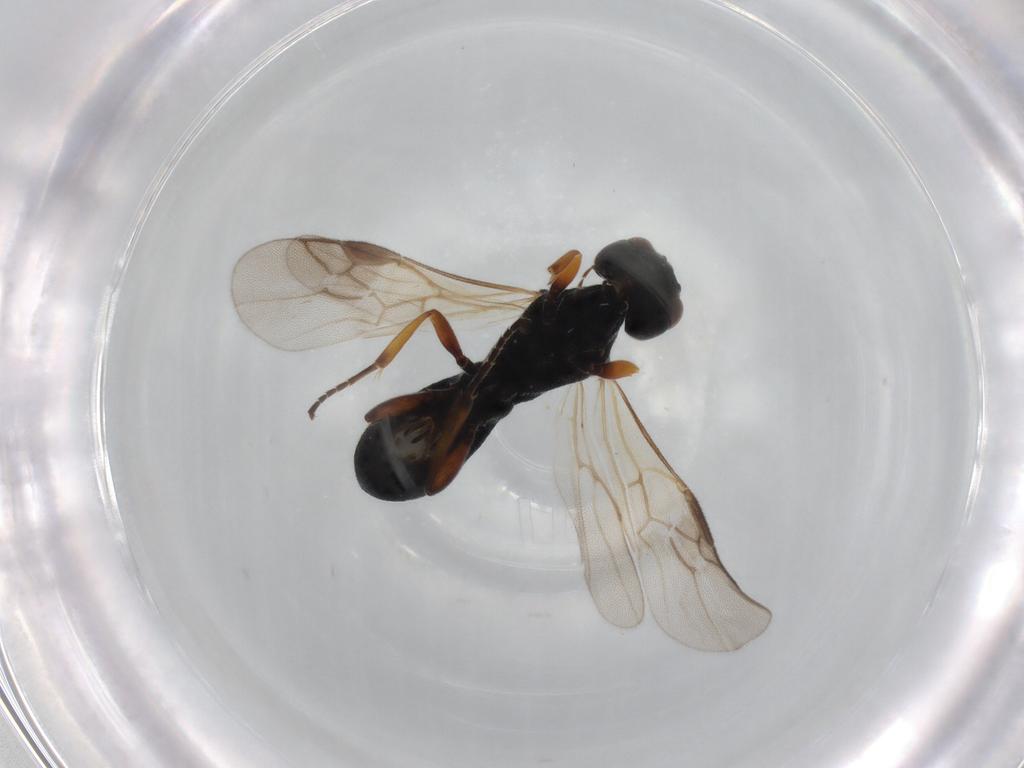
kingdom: Animalia
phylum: Arthropoda
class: Insecta
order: Hymenoptera
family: Braconidae
